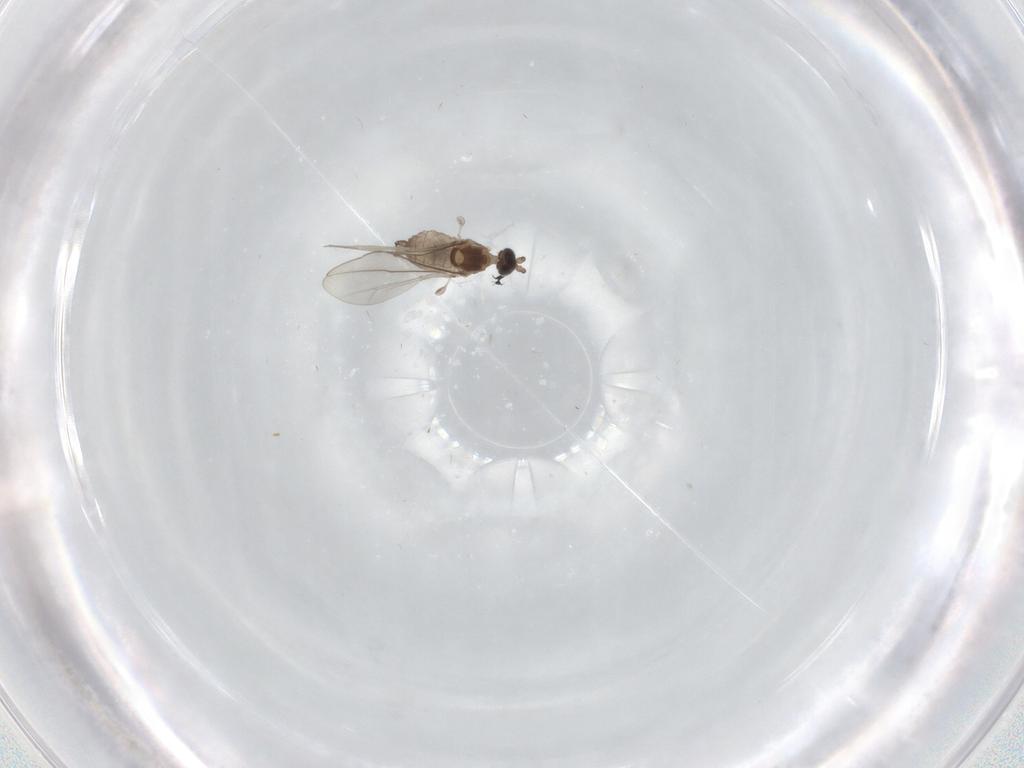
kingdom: Animalia
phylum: Arthropoda
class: Insecta
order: Diptera
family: Cecidomyiidae
